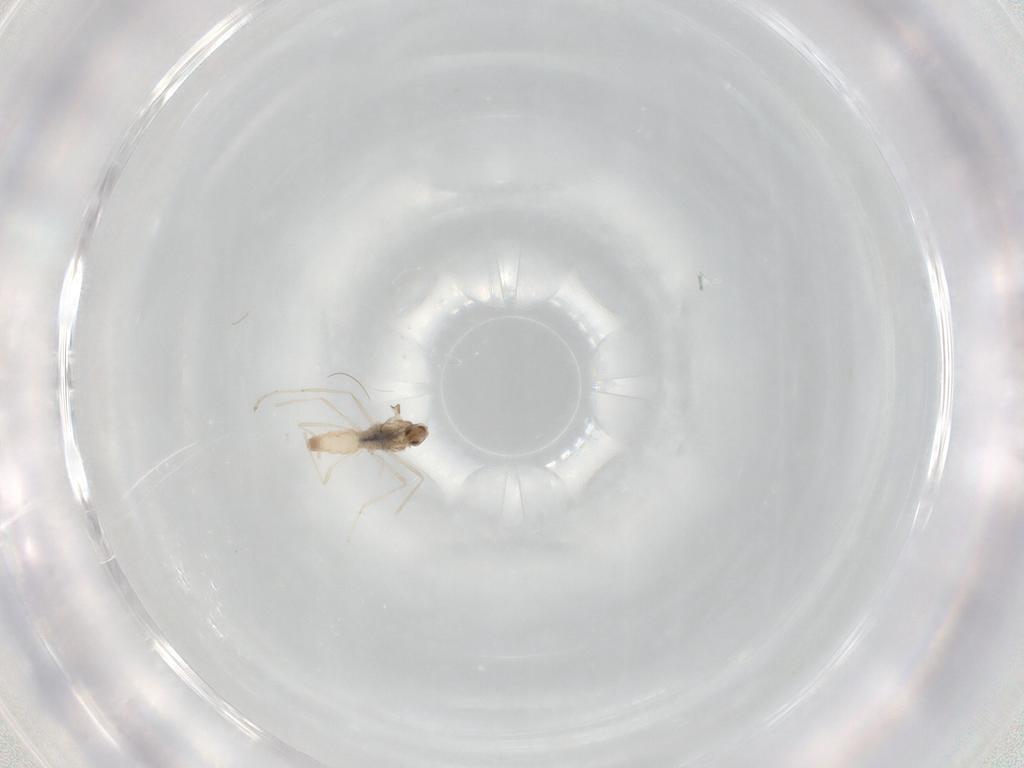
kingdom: Animalia
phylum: Arthropoda
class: Insecta
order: Diptera
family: Cecidomyiidae
